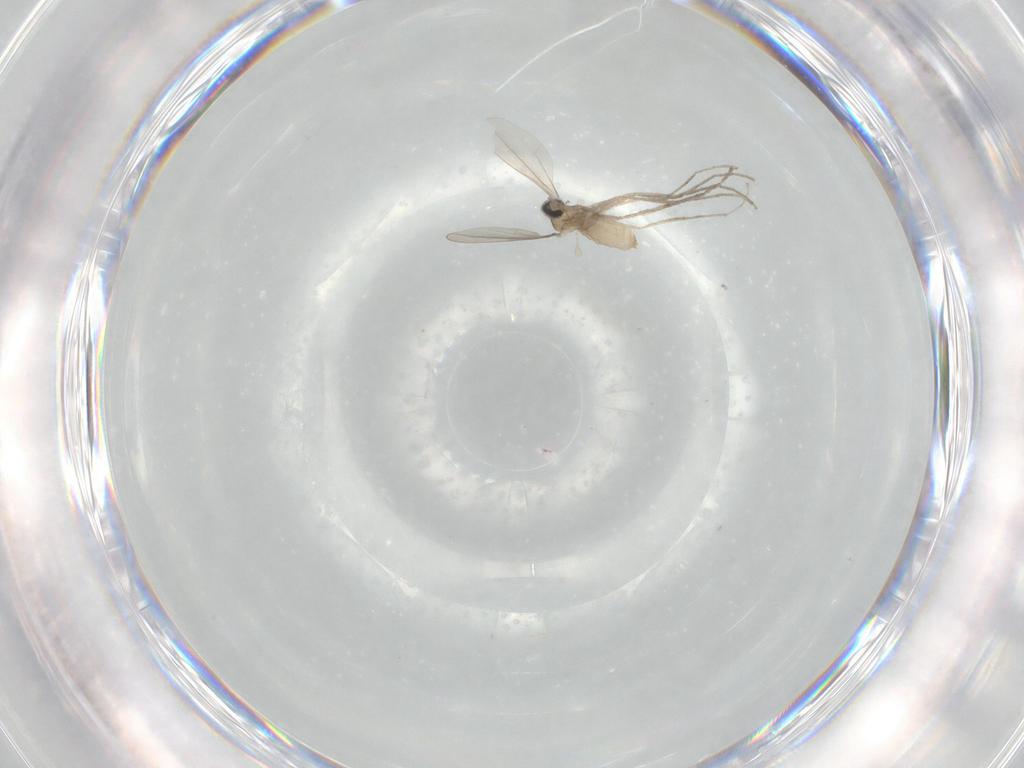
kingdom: Animalia
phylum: Arthropoda
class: Insecta
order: Diptera
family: Cecidomyiidae
